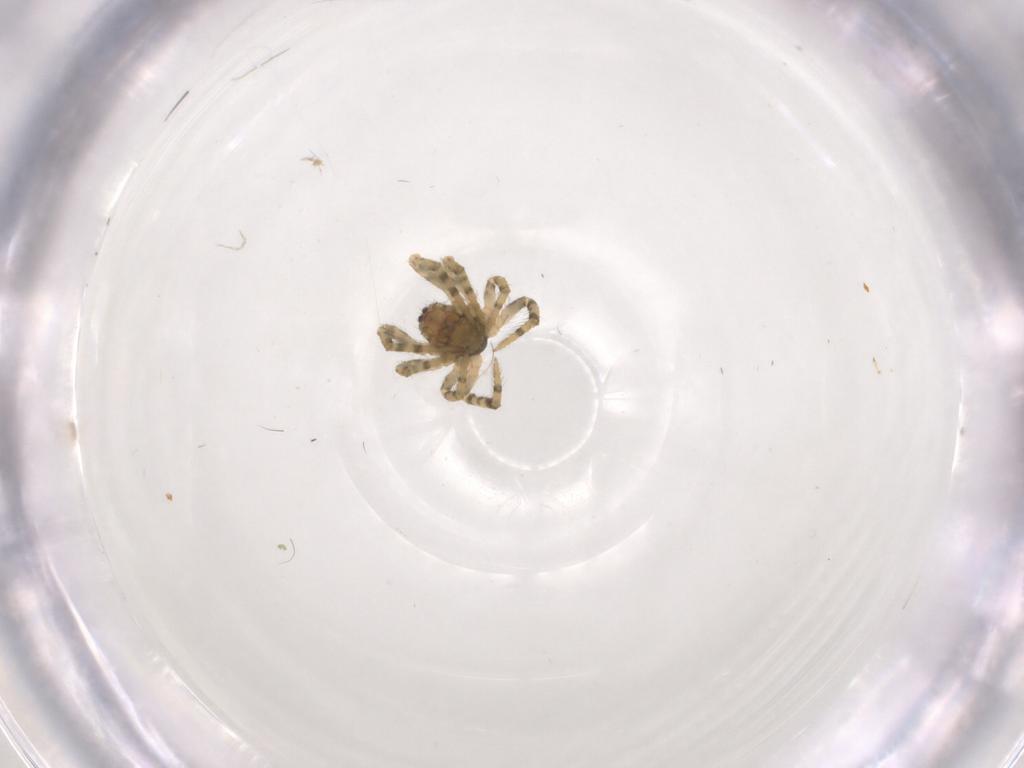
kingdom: Animalia
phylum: Arthropoda
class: Arachnida
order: Araneae
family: Theridiidae
